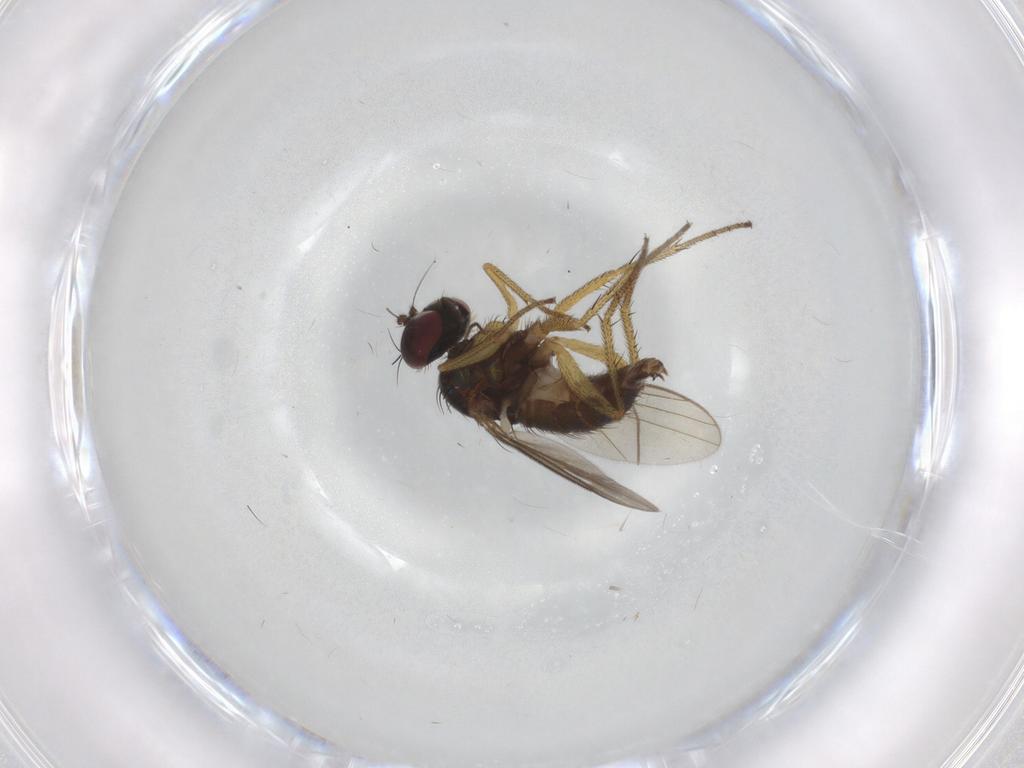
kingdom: Animalia
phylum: Arthropoda
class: Insecta
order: Diptera
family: Chironomidae
